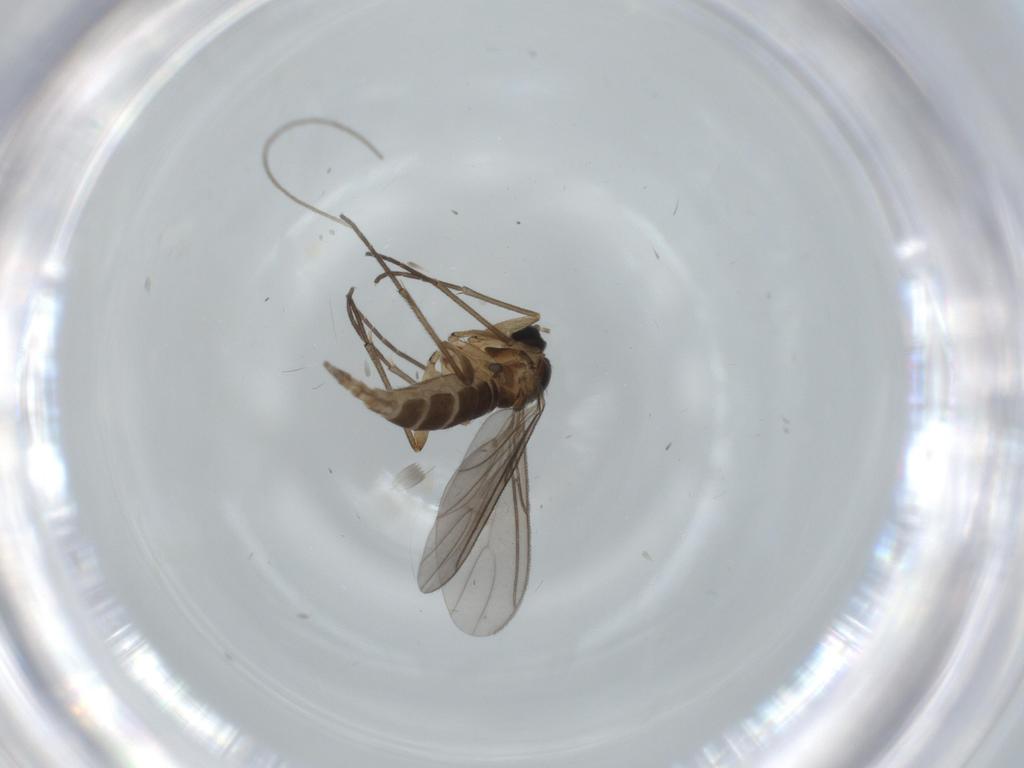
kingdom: Animalia
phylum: Arthropoda
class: Insecta
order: Diptera
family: Sciaridae
